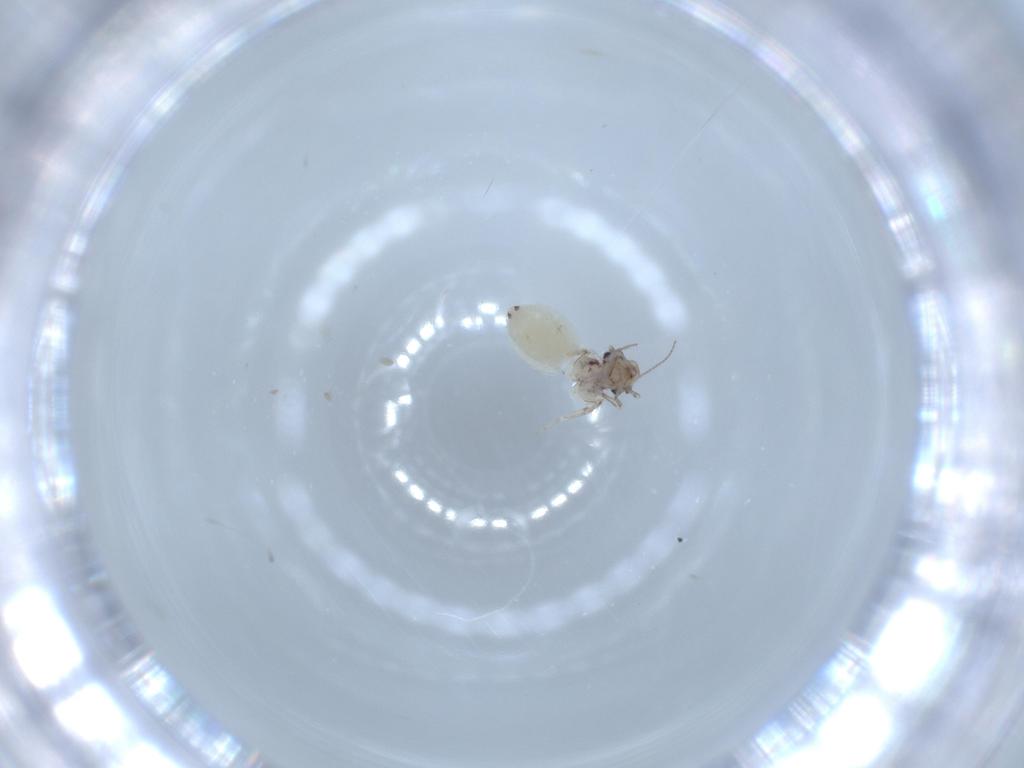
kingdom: Animalia
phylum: Arthropoda
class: Insecta
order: Psocodea
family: Lepidopsocidae
